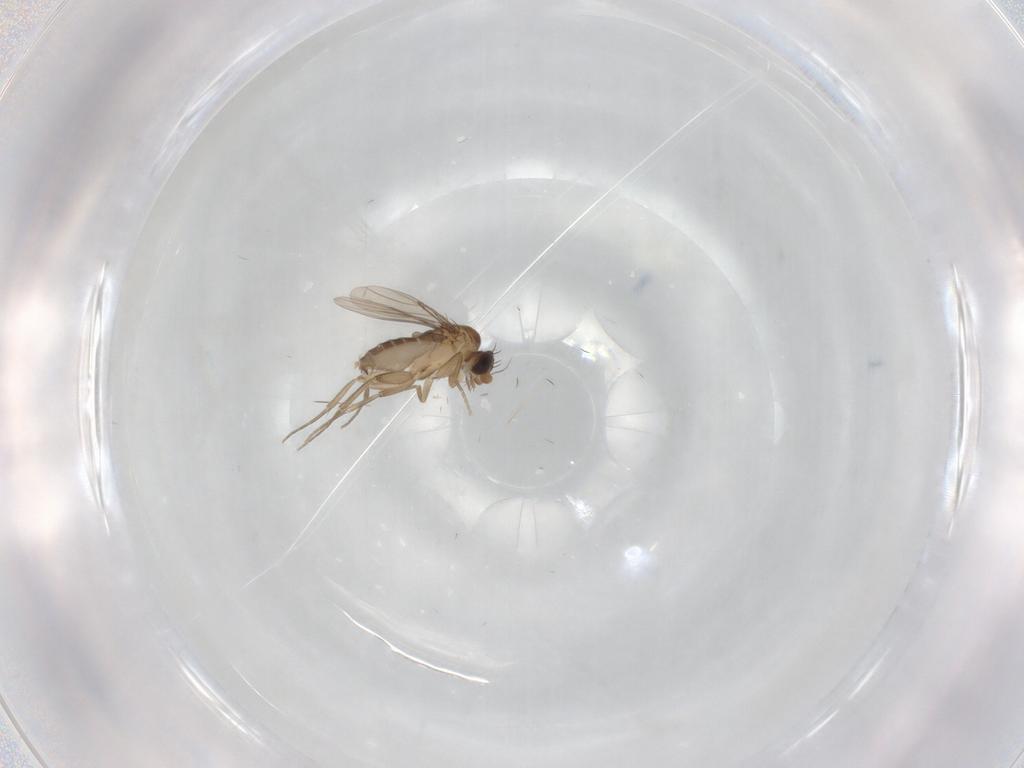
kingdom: Animalia
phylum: Arthropoda
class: Insecta
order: Diptera
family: Phoridae
